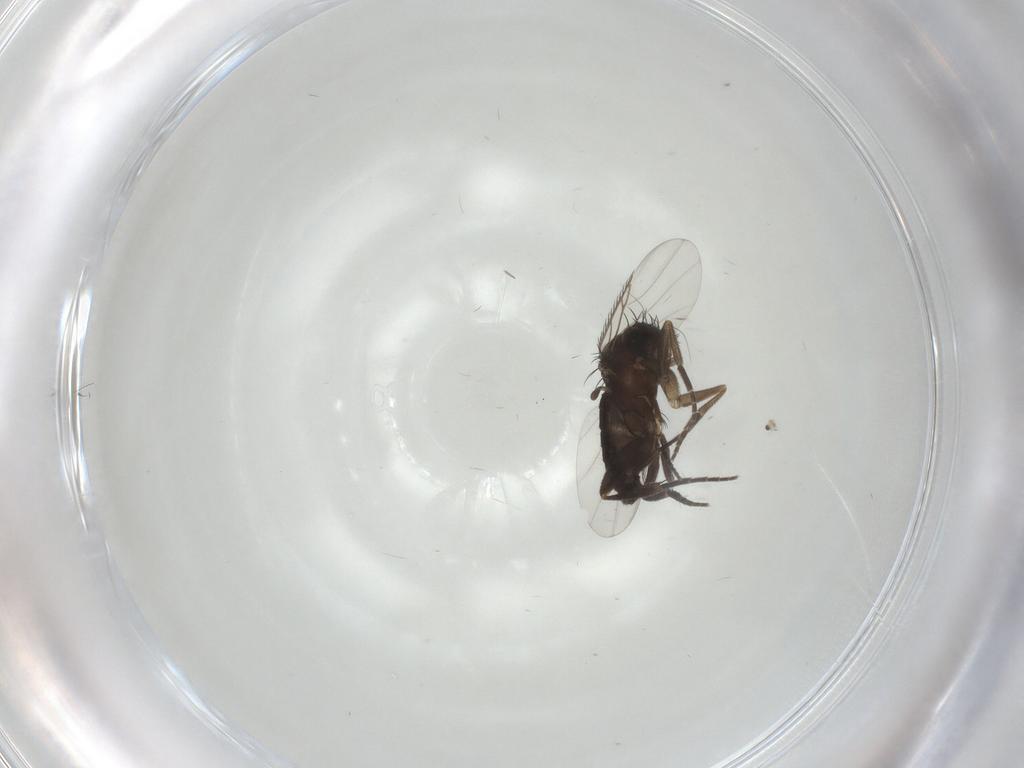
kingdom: Animalia
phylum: Arthropoda
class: Insecta
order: Diptera
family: Phoridae
